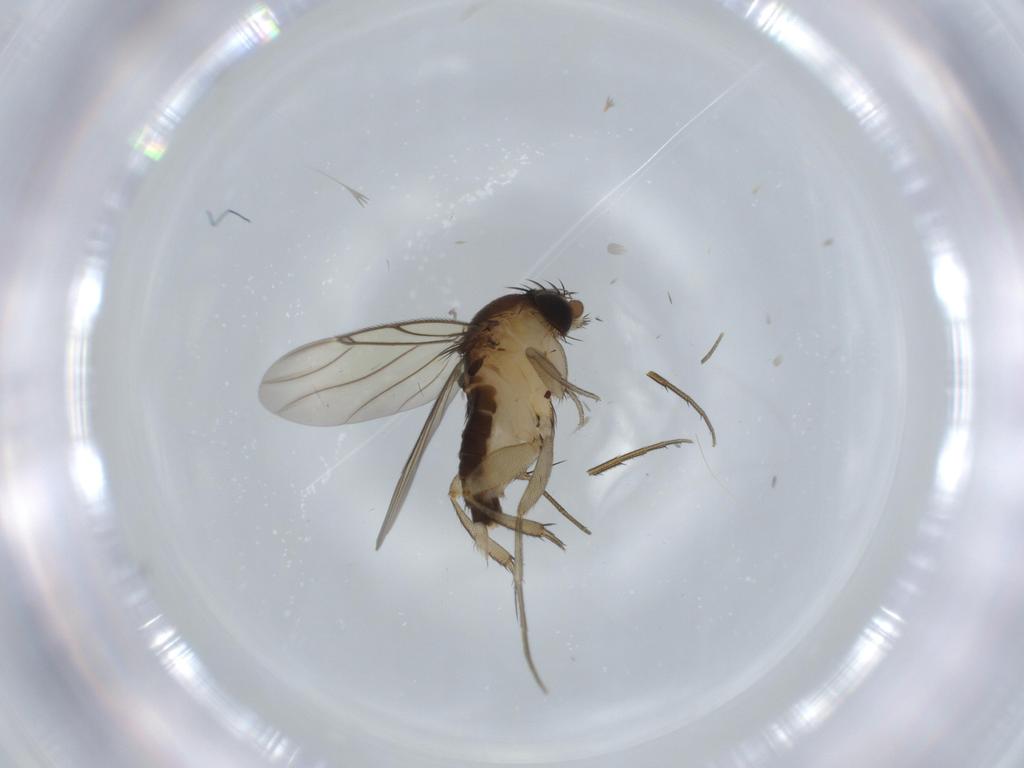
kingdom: Animalia
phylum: Arthropoda
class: Insecta
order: Diptera
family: Phoridae
